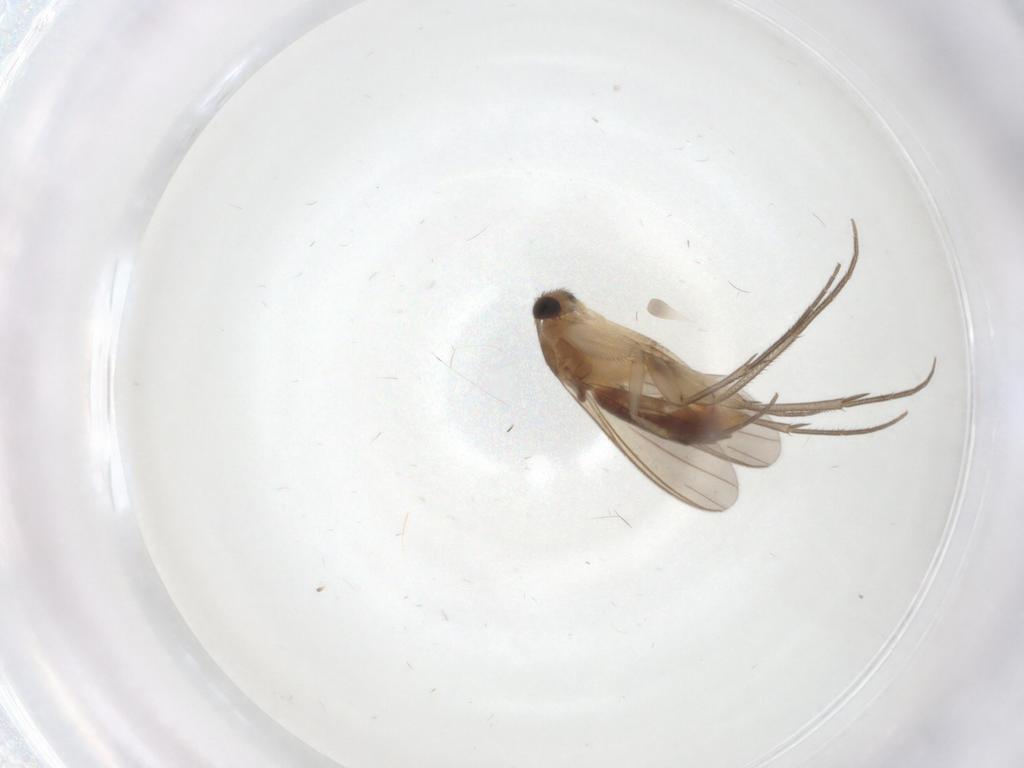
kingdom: Animalia
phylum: Arthropoda
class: Insecta
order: Diptera
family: Mycetophilidae
